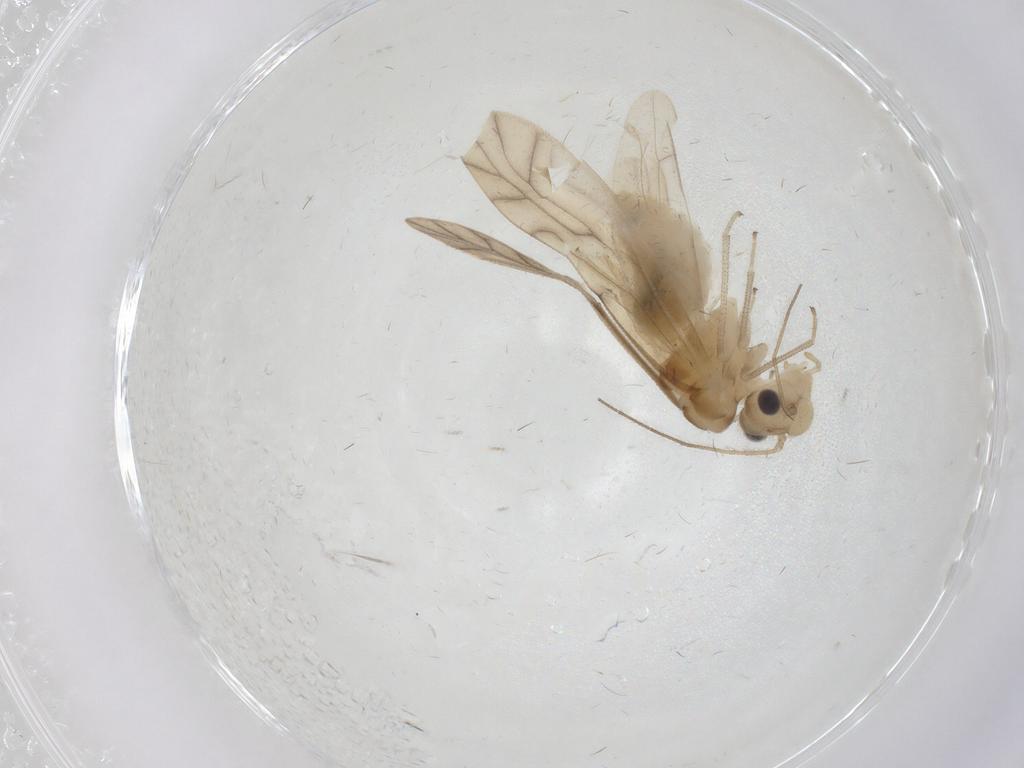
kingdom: Animalia
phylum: Arthropoda
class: Insecta
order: Psocodea
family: Caeciliusidae
